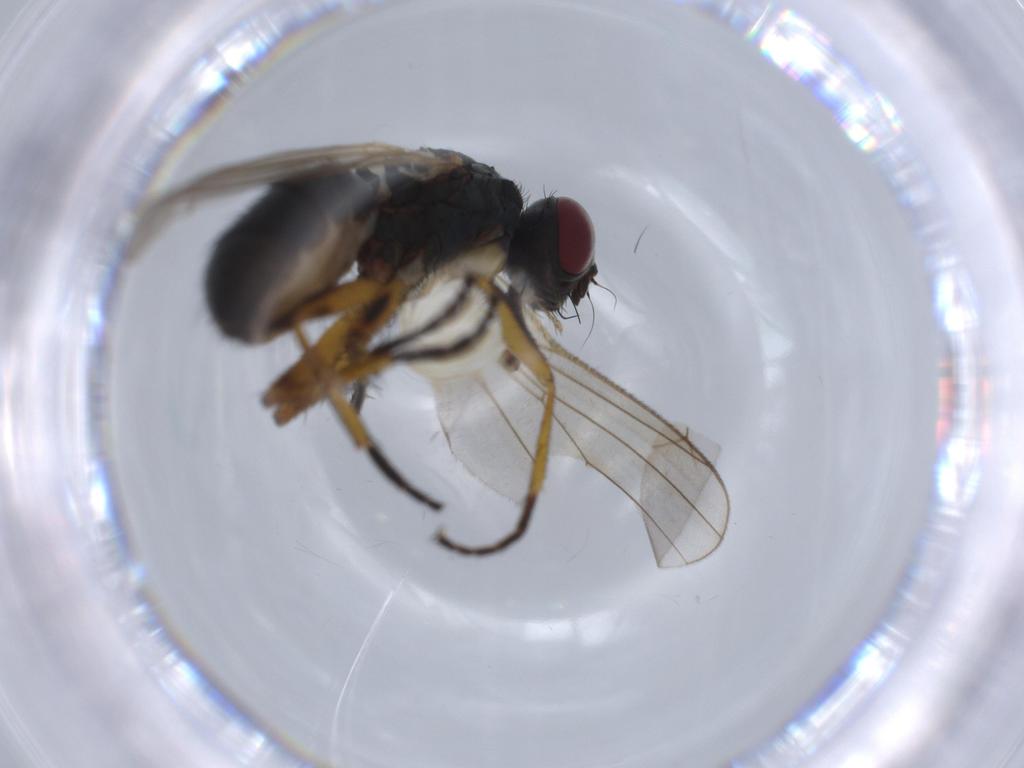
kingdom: Animalia
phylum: Arthropoda
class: Insecta
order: Diptera
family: Cecidomyiidae
